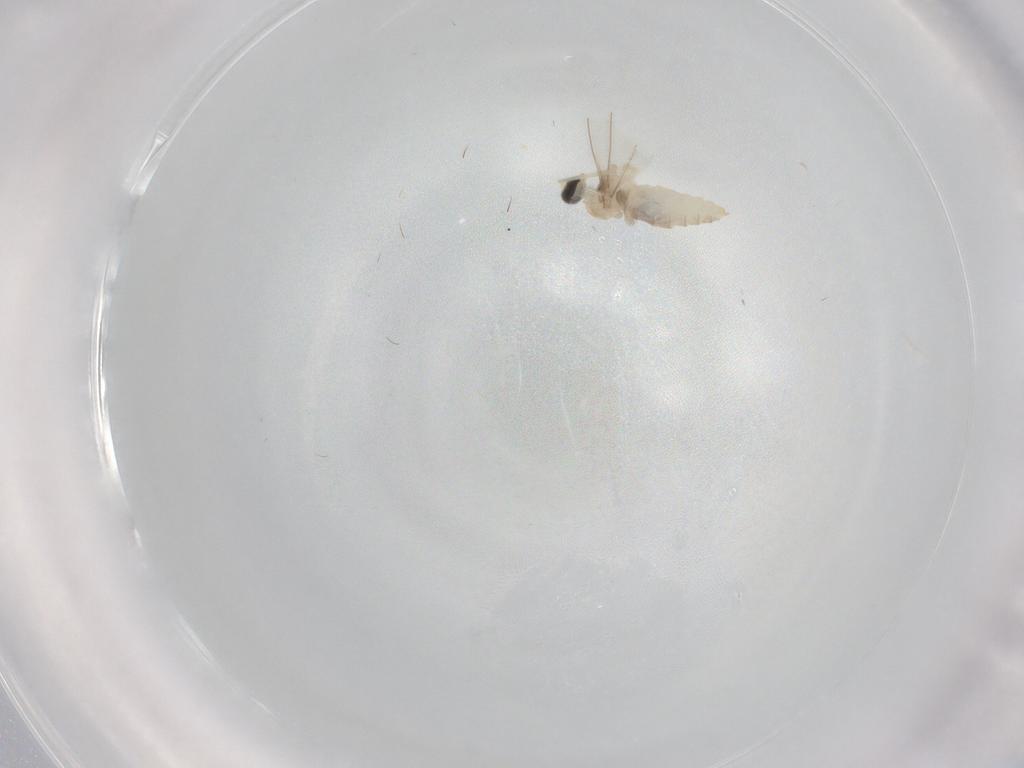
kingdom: Animalia
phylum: Arthropoda
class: Insecta
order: Diptera
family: Cecidomyiidae
